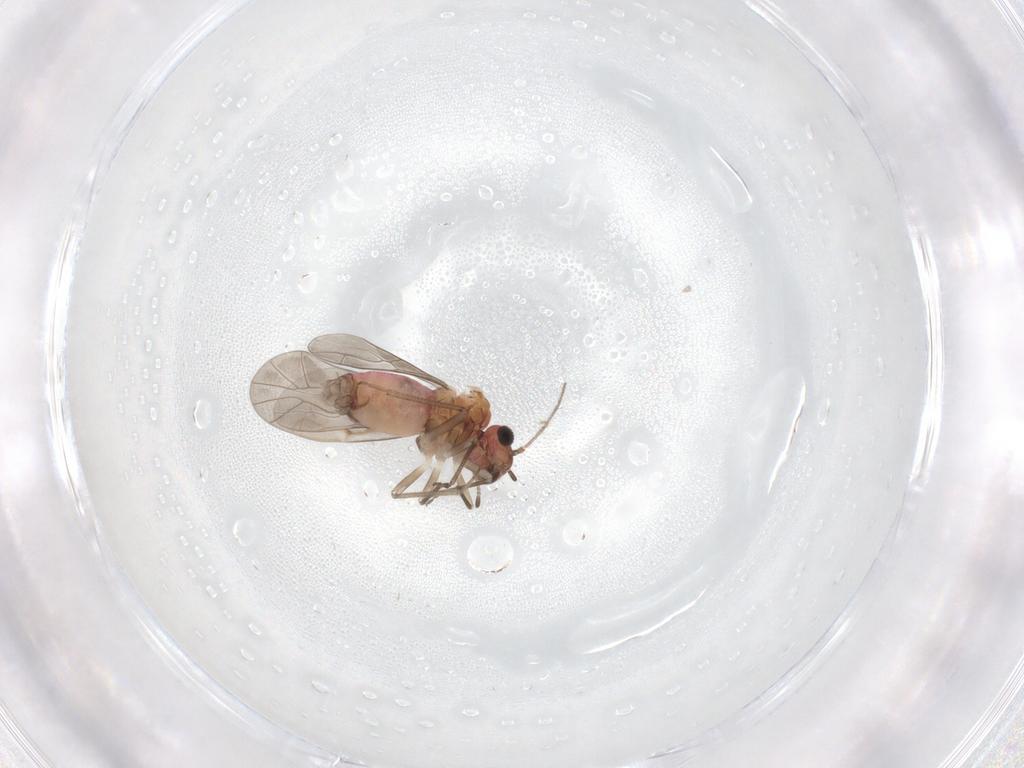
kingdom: Animalia
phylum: Arthropoda
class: Insecta
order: Psocodea
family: Lachesillidae
